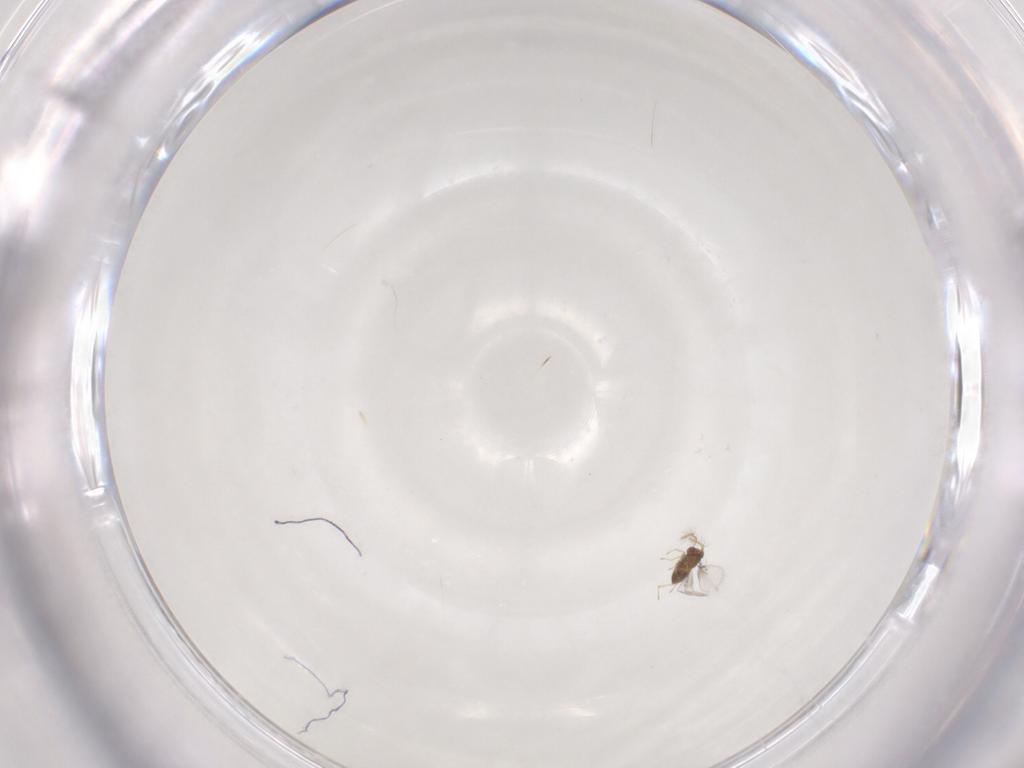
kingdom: Animalia
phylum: Arthropoda
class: Insecta
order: Hymenoptera
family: Trichogrammatidae
